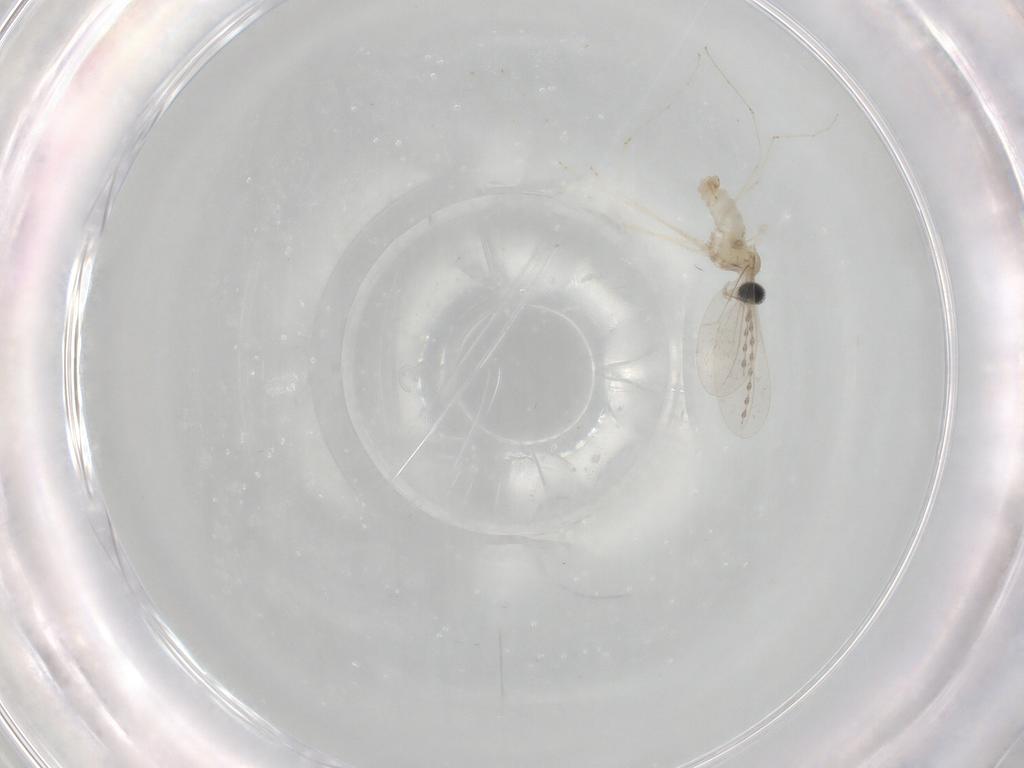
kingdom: Animalia
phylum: Arthropoda
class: Insecta
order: Diptera
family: Cecidomyiidae
